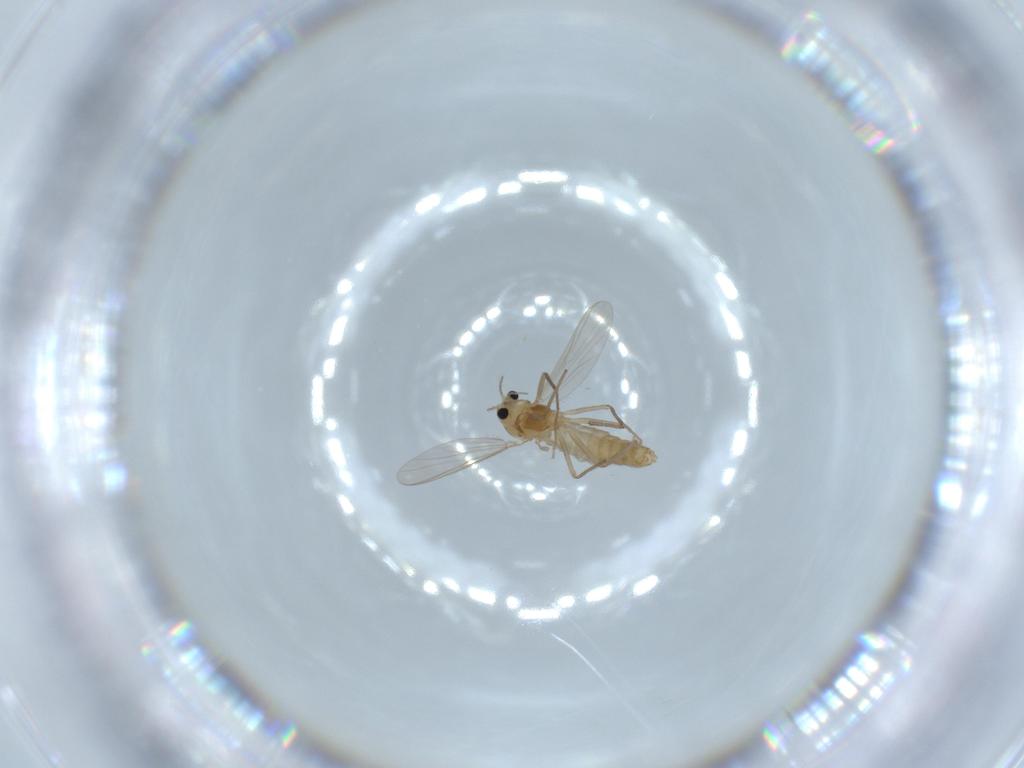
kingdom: Animalia
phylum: Arthropoda
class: Insecta
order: Diptera
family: Chironomidae
